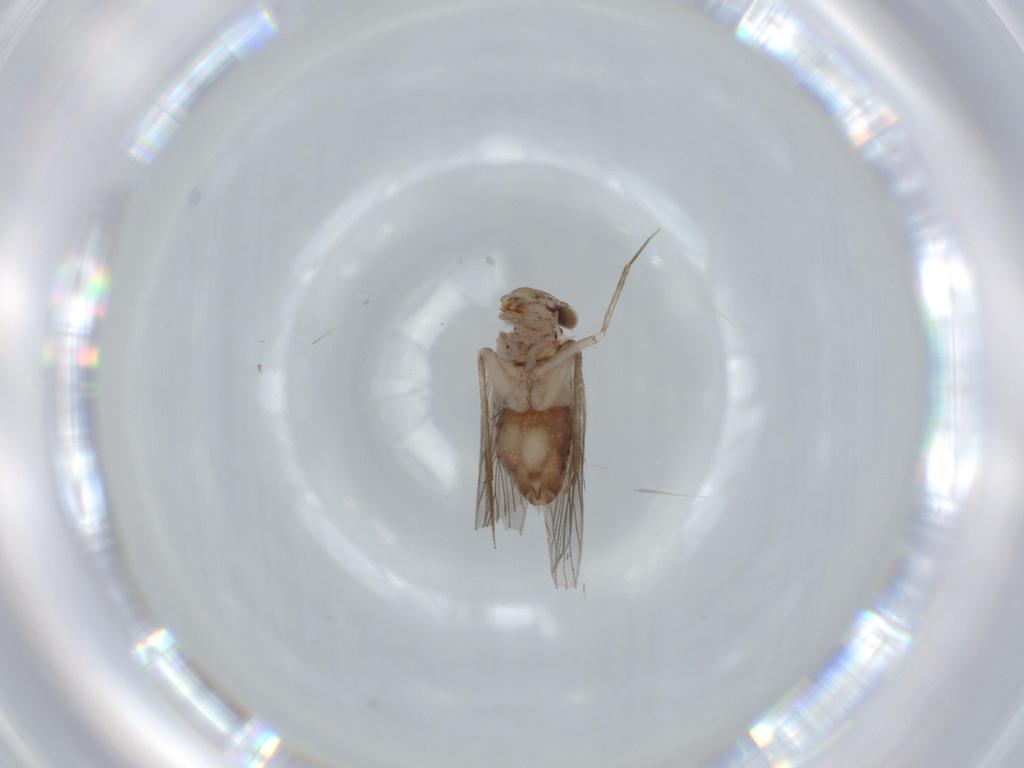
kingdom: Animalia
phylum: Arthropoda
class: Insecta
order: Psocodea
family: Lepidopsocidae
